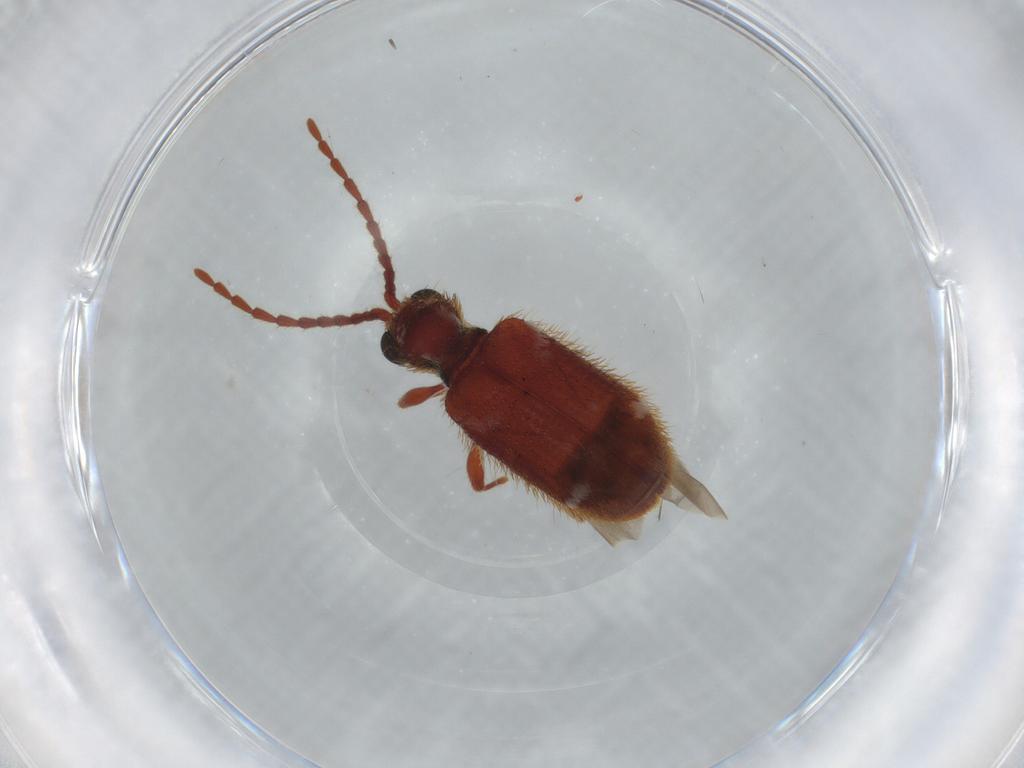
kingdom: Animalia
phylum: Arthropoda
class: Insecta
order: Coleoptera
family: Ptinidae
